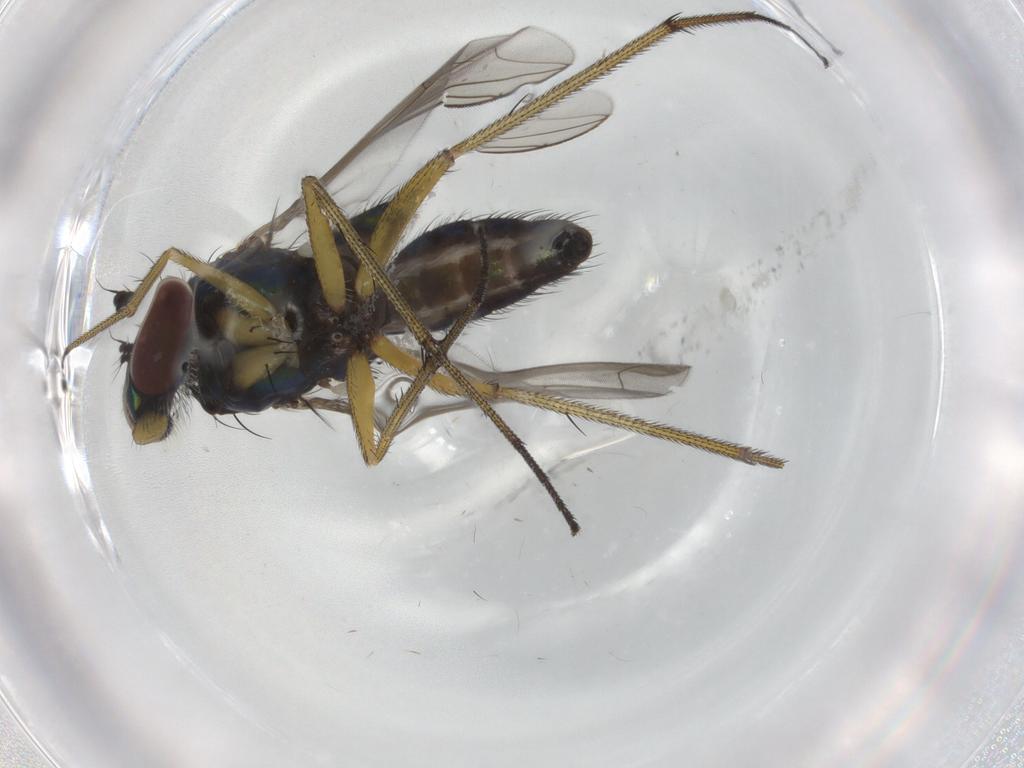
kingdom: Animalia
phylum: Arthropoda
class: Insecta
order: Diptera
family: Dolichopodidae
